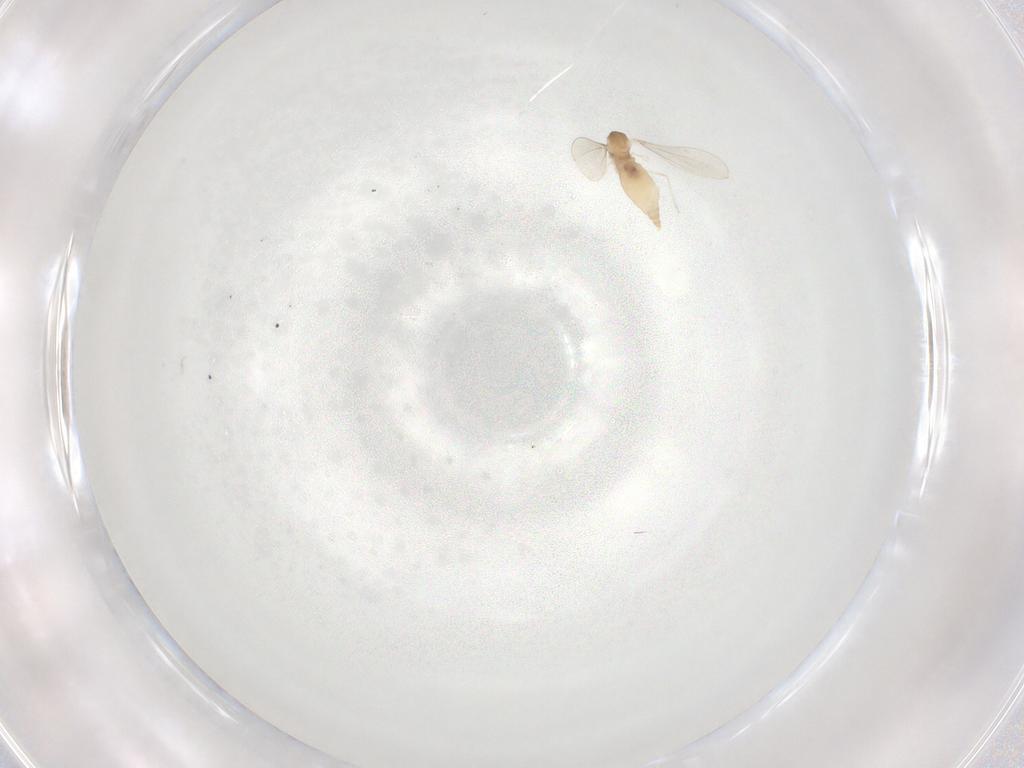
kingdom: Animalia
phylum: Arthropoda
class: Insecta
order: Diptera
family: Cecidomyiidae
